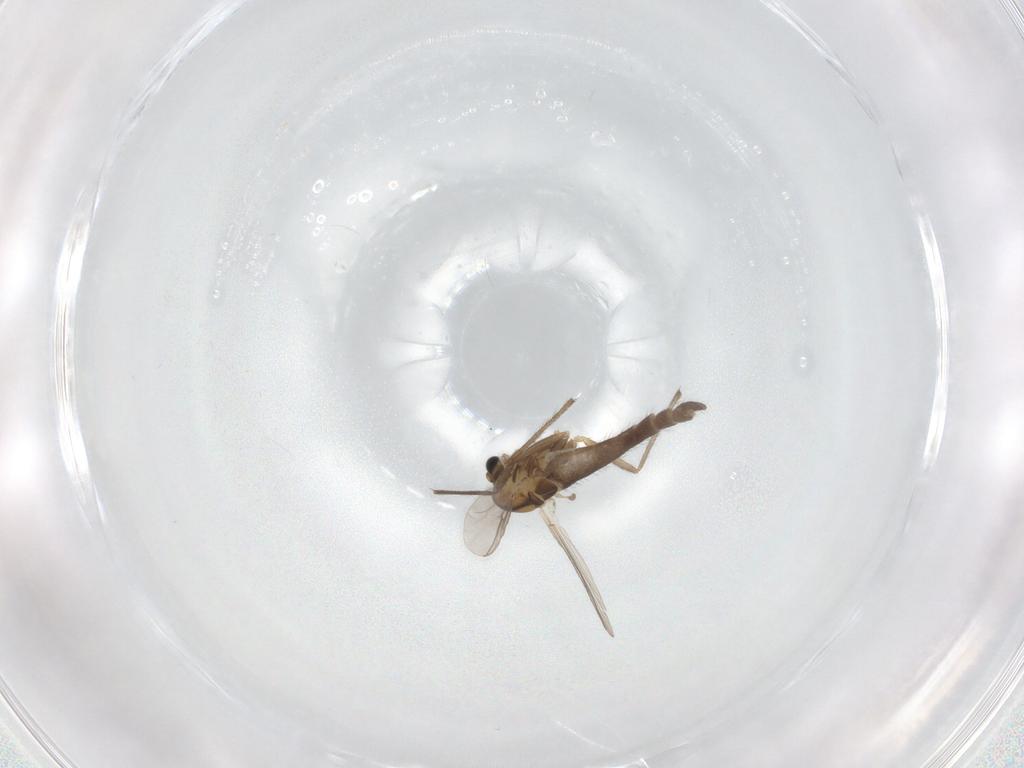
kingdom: Animalia
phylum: Arthropoda
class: Insecta
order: Diptera
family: Chironomidae
